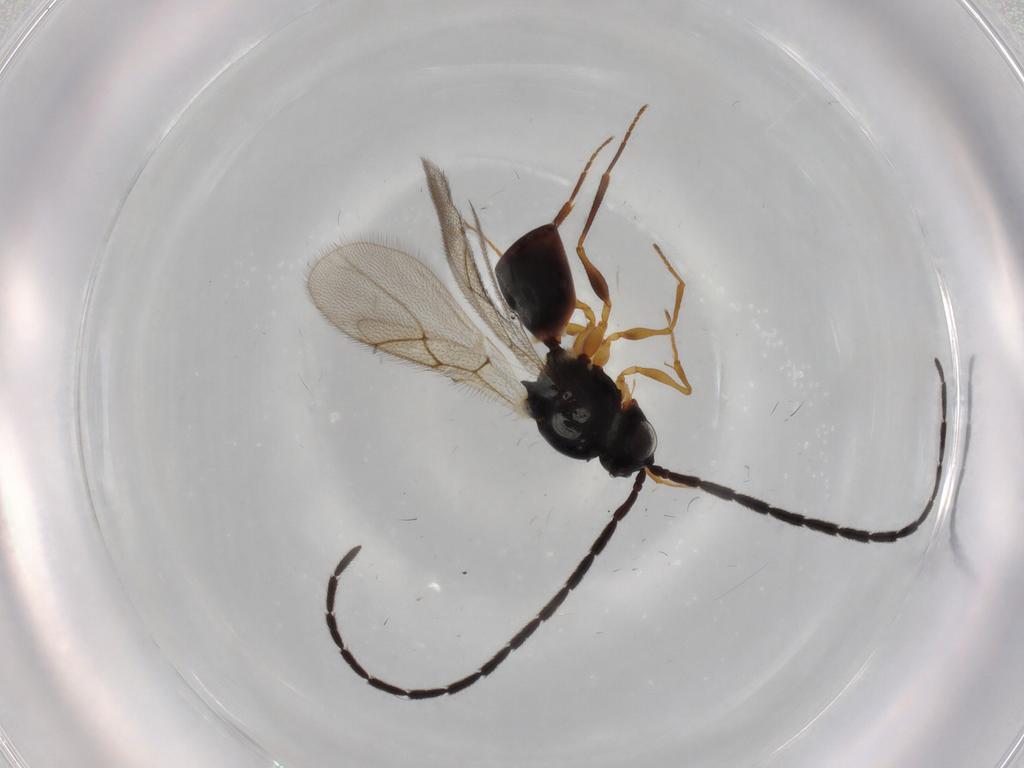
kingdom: Animalia
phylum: Arthropoda
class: Insecta
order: Hymenoptera
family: Figitidae
